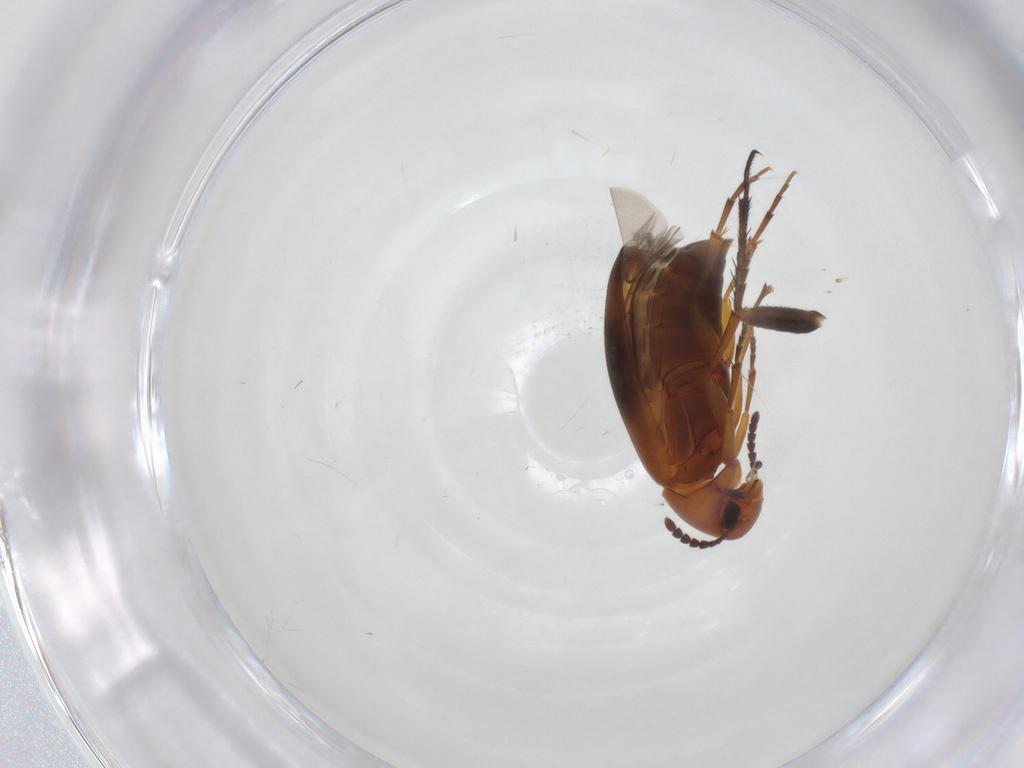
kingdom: Animalia
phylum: Arthropoda
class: Insecta
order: Coleoptera
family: Scraptiidae
